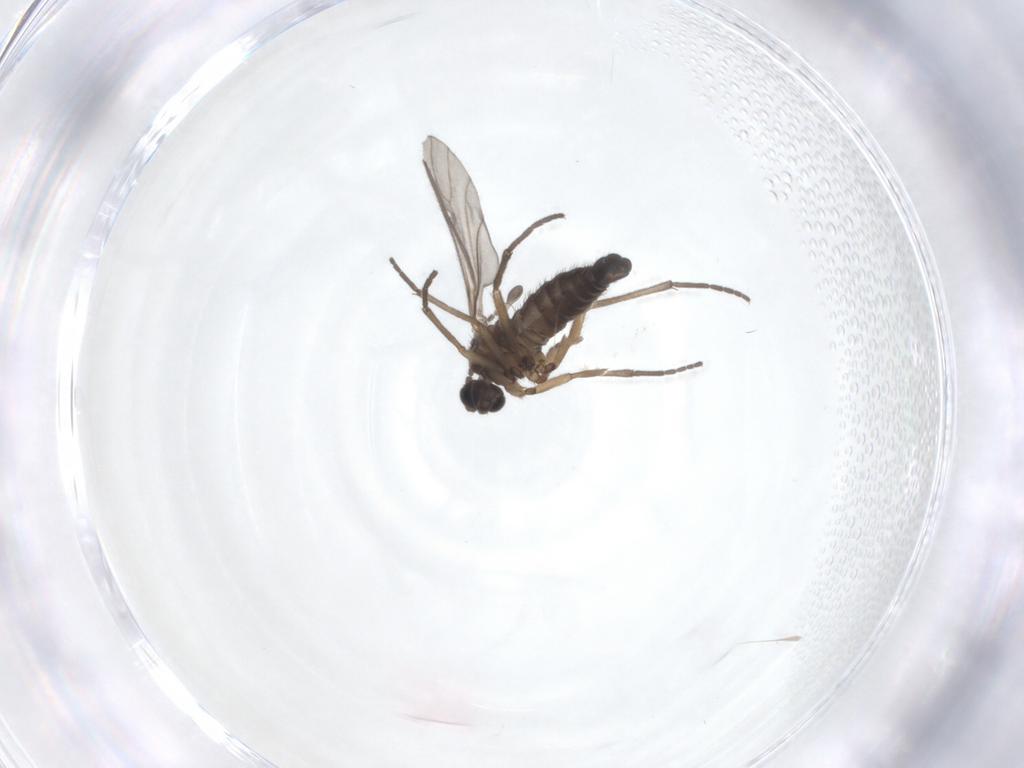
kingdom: Animalia
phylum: Arthropoda
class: Insecta
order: Diptera
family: Sciaridae
